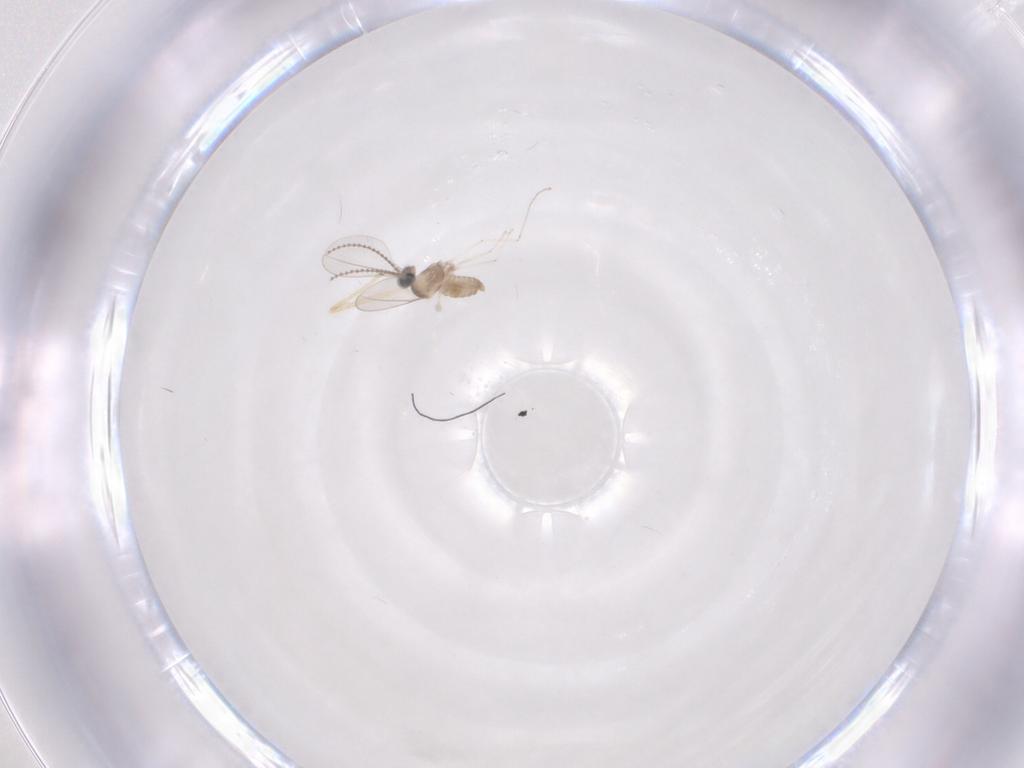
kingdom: Animalia
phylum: Arthropoda
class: Insecta
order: Diptera
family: Cecidomyiidae
